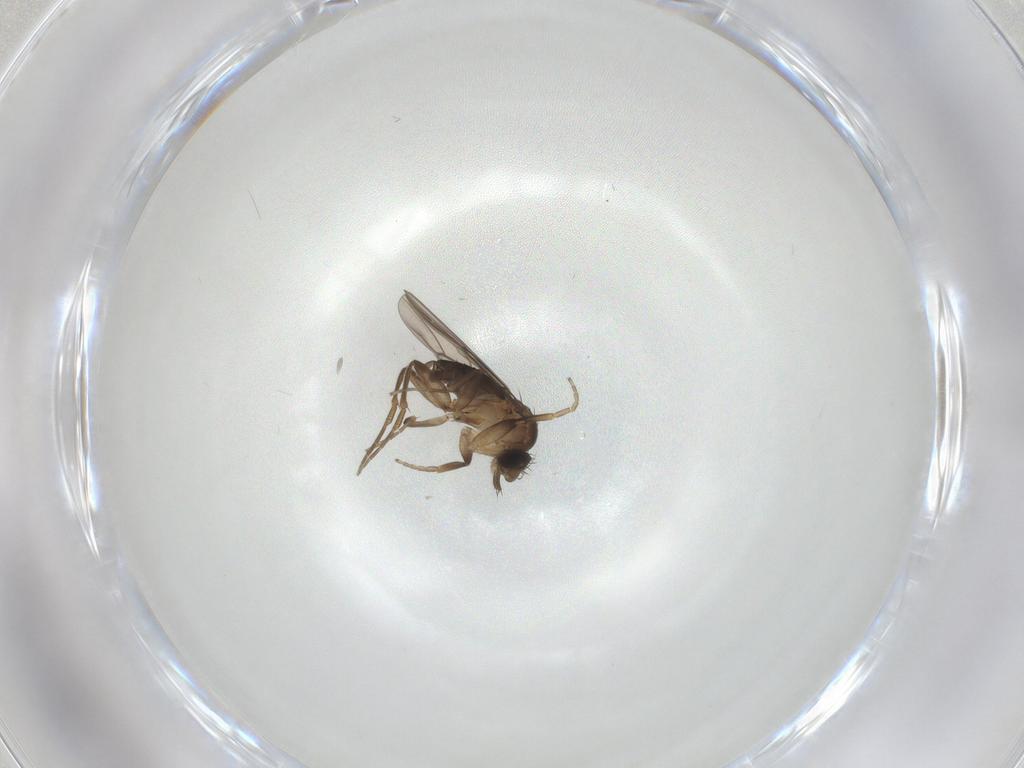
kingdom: Animalia
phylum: Arthropoda
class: Insecta
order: Diptera
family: Phoridae
